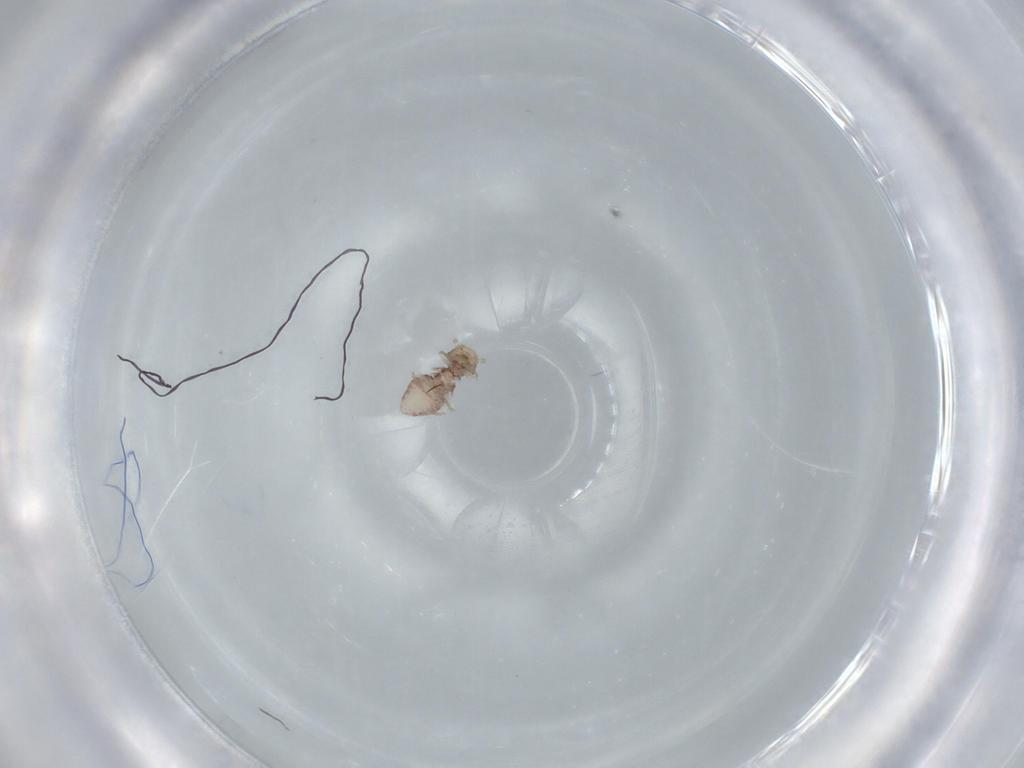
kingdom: Animalia
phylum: Arthropoda
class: Insecta
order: Psocodea
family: Ectopsocidae
